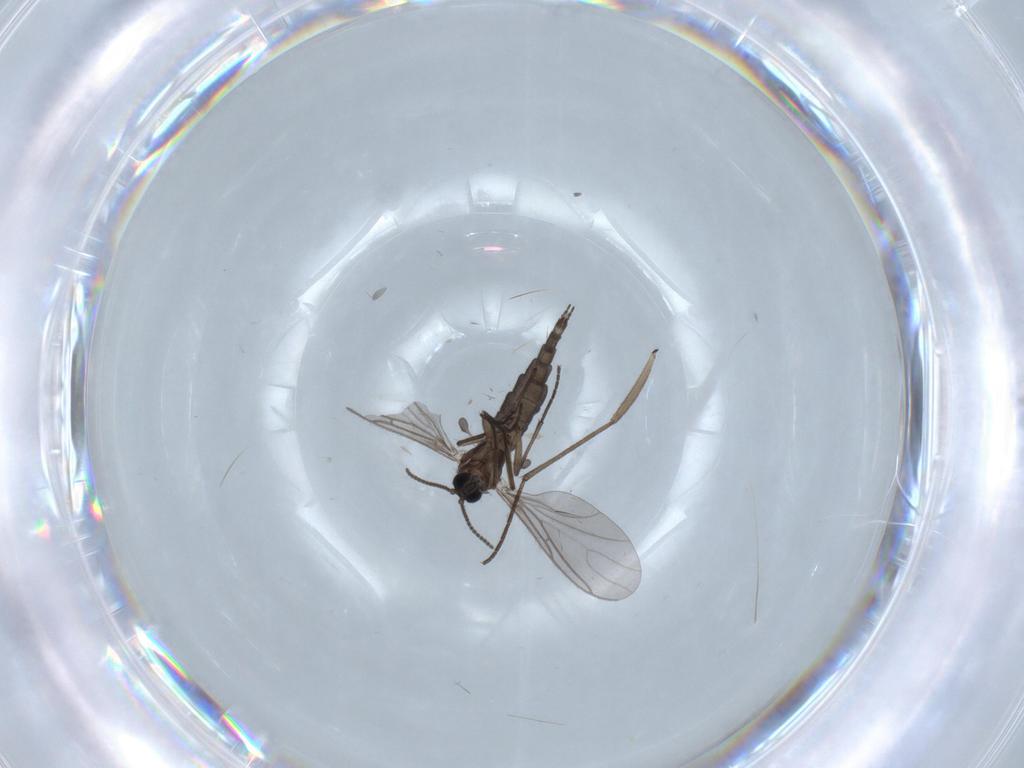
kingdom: Animalia
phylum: Arthropoda
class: Insecta
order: Diptera
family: Sciaridae
